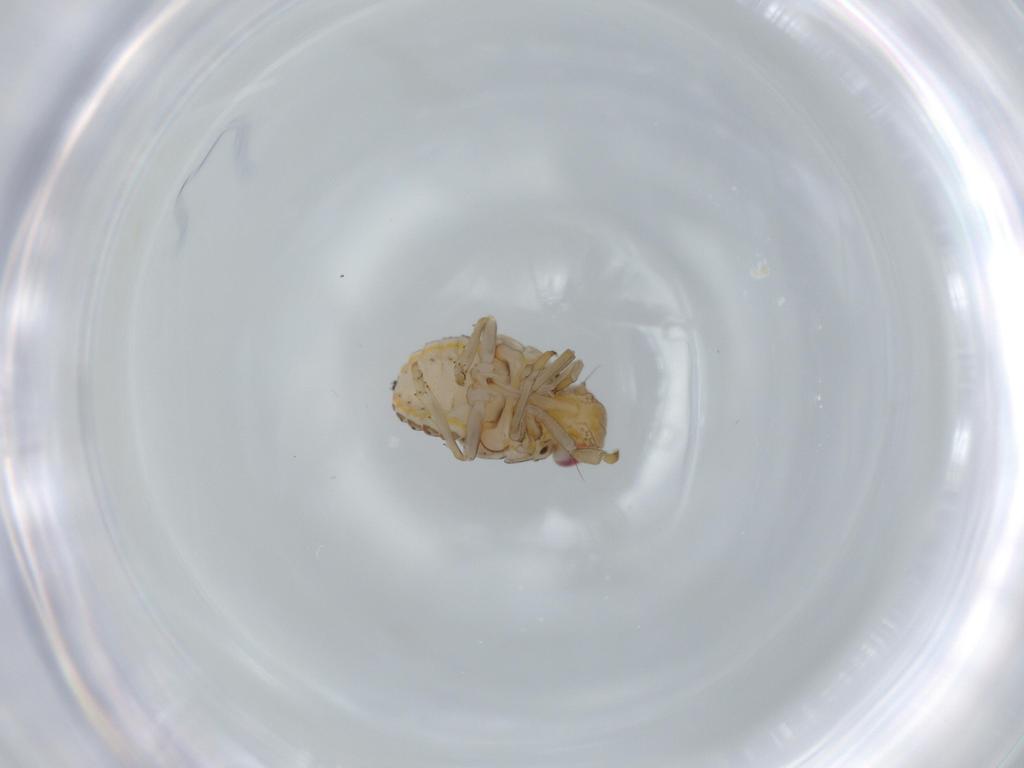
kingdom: Animalia
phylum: Arthropoda
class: Insecta
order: Hemiptera
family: Issidae
